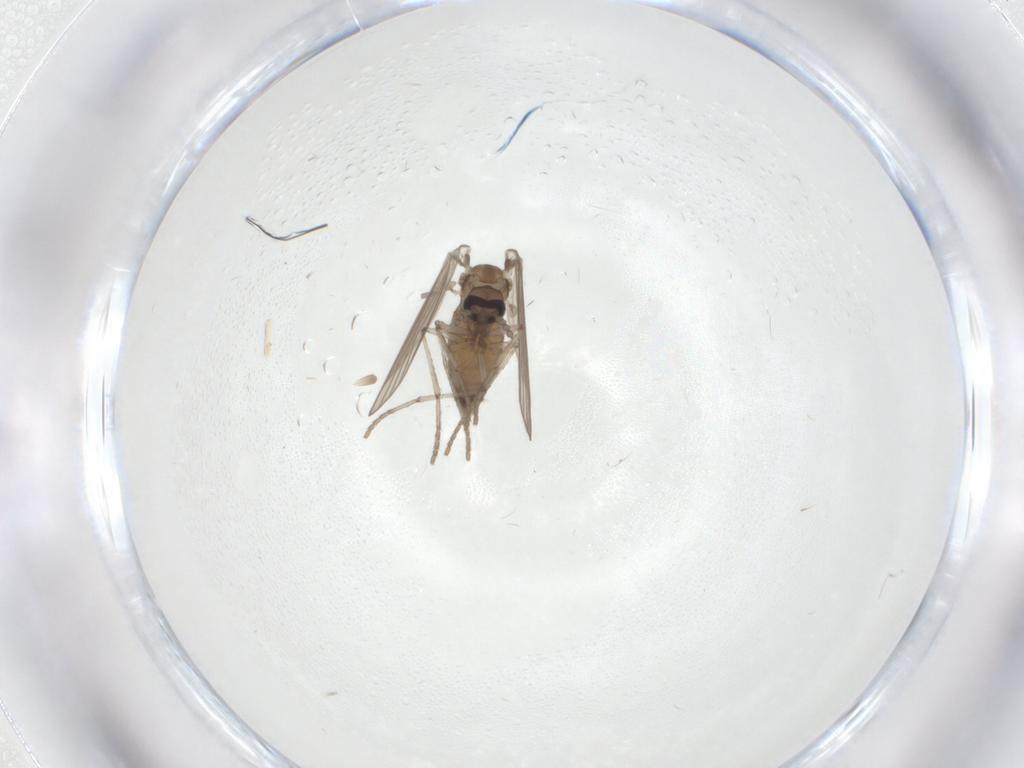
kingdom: Animalia
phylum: Arthropoda
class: Insecta
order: Diptera
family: Psychodidae
